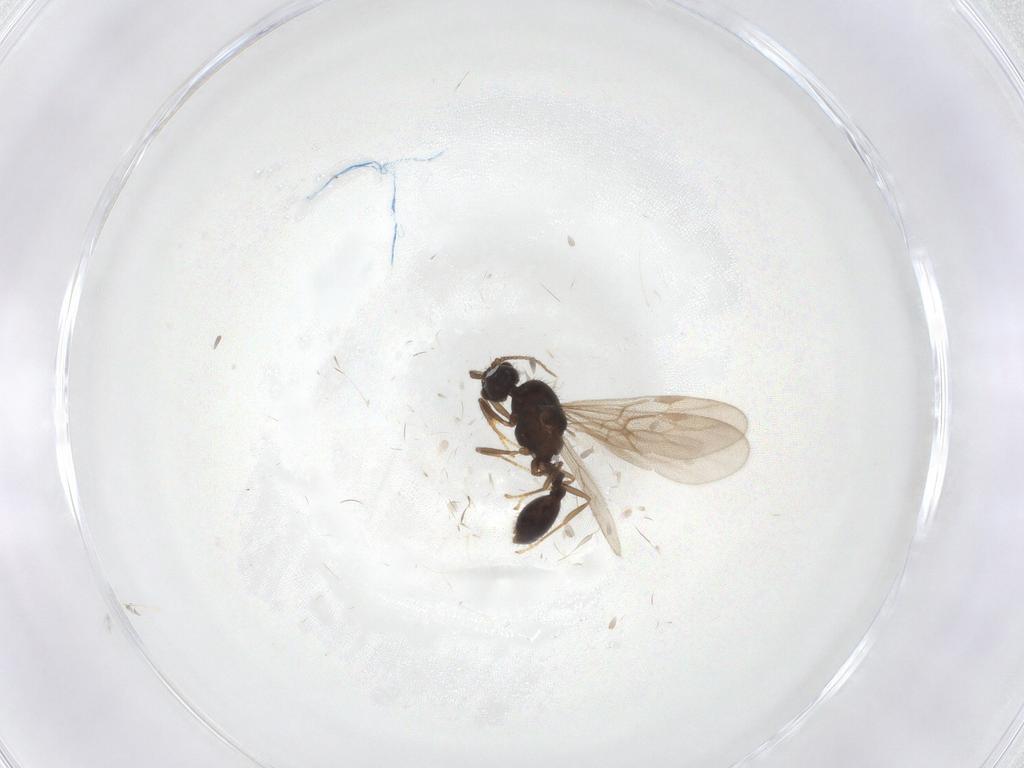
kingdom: Animalia
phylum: Arthropoda
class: Insecta
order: Hymenoptera
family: Formicidae
